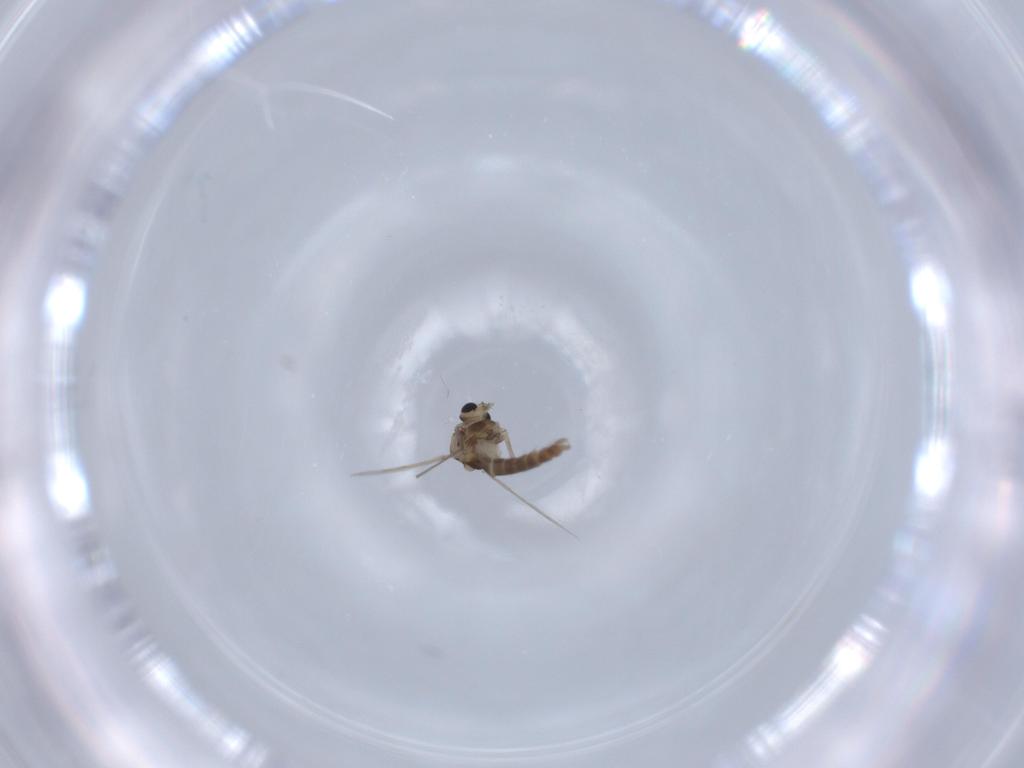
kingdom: Animalia
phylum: Arthropoda
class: Insecta
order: Diptera
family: Chironomidae
